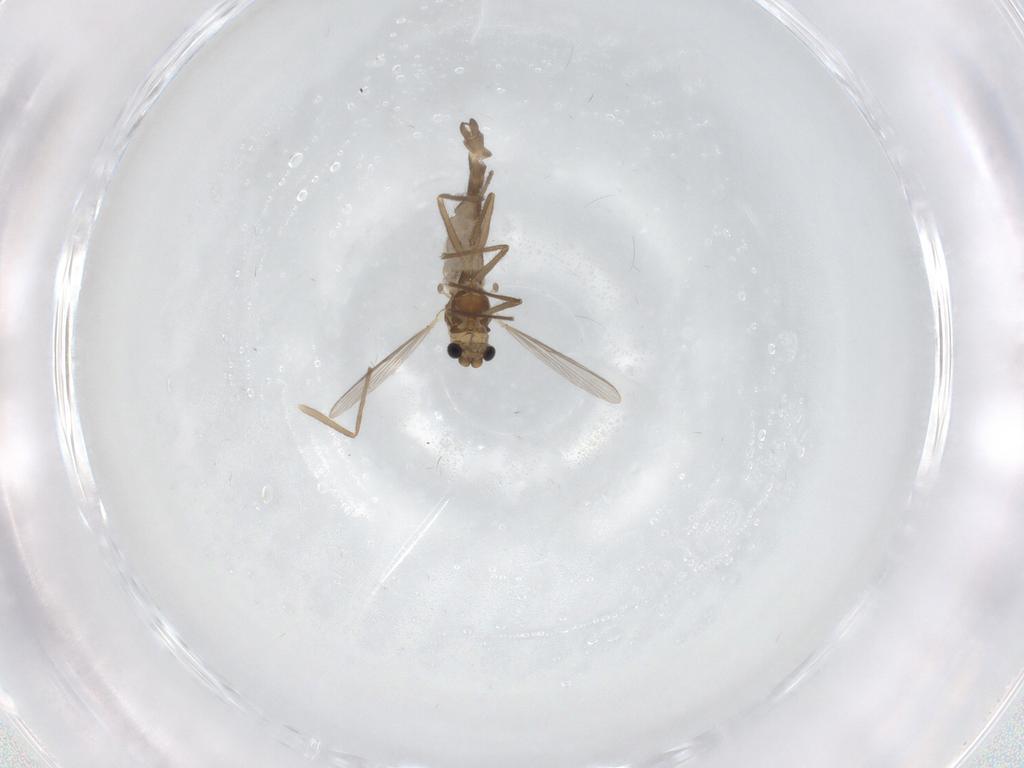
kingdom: Animalia
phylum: Arthropoda
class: Insecta
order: Diptera
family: Chironomidae
